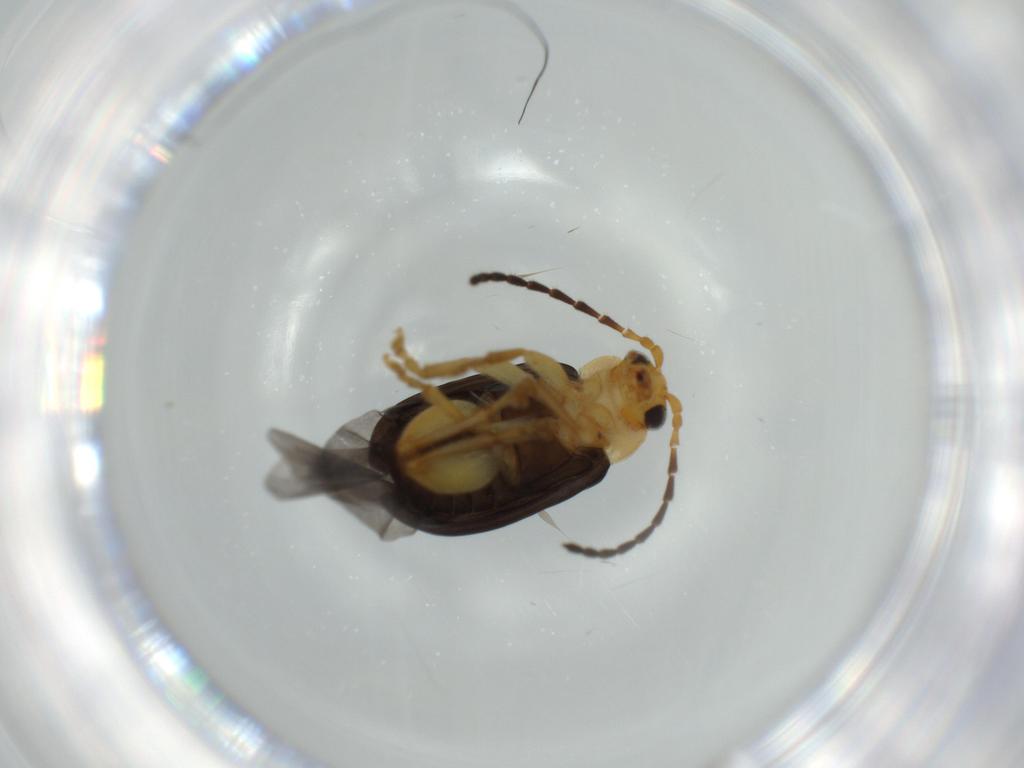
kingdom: Animalia
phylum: Arthropoda
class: Insecta
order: Coleoptera
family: Chrysomelidae
